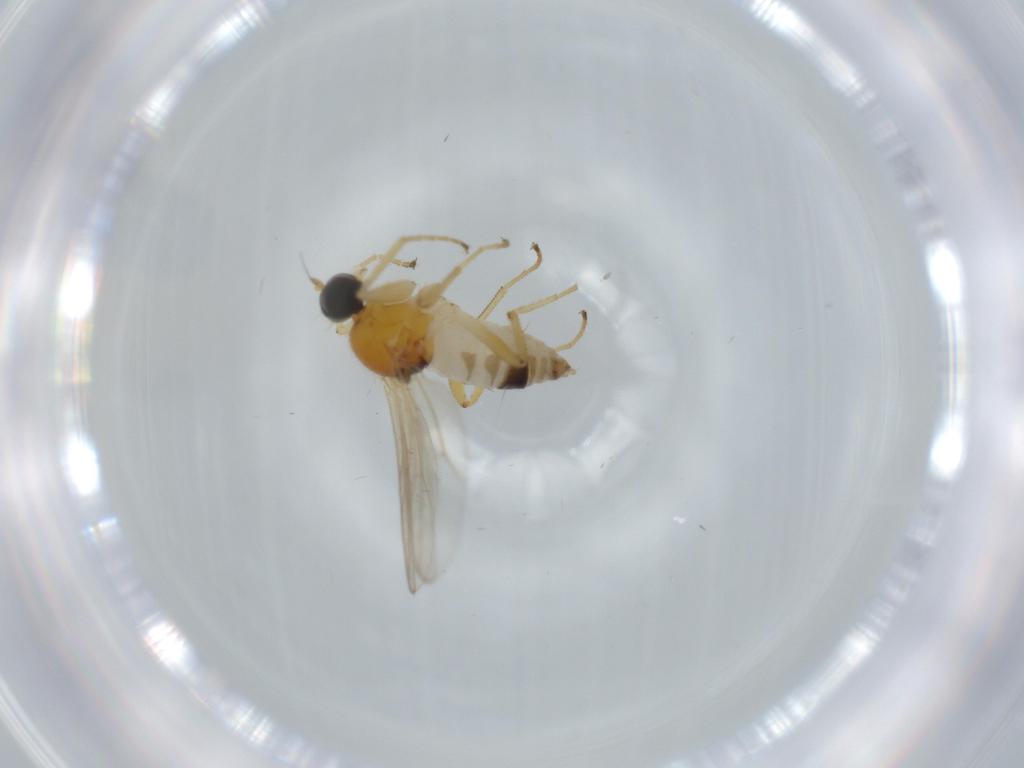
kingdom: Animalia
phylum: Arthropoda
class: Insecta
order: Diptera
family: Hybotidae
